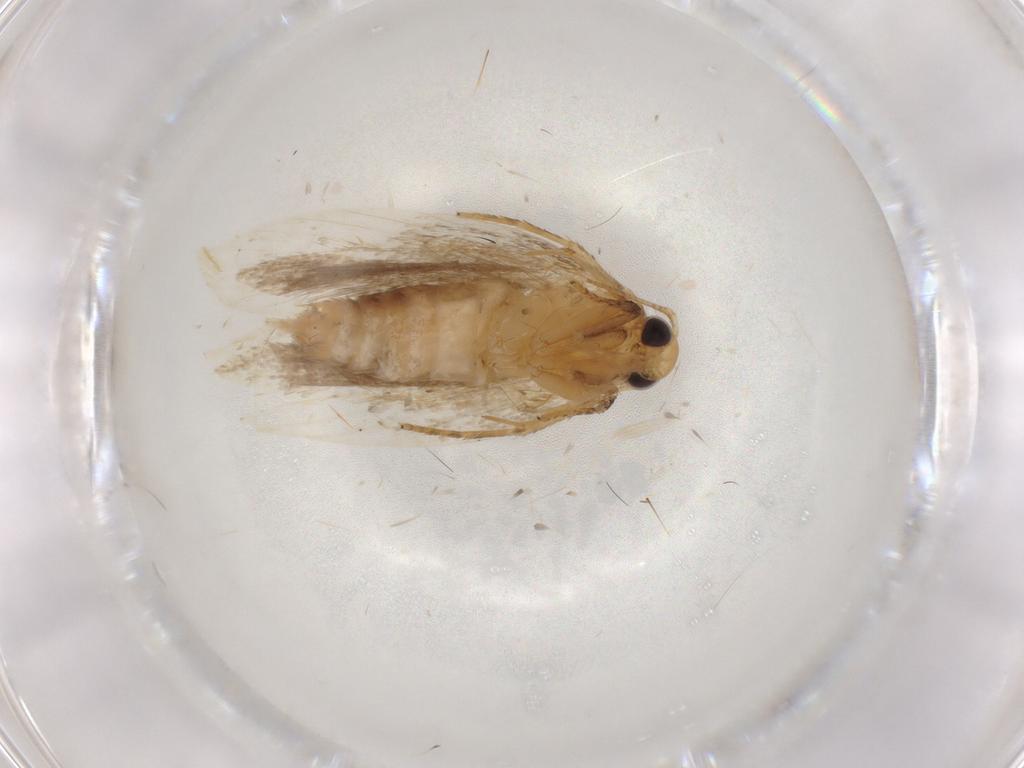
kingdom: Animalia
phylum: Arthropoda
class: Insecta
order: Lepidoptera
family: Depressariidae
